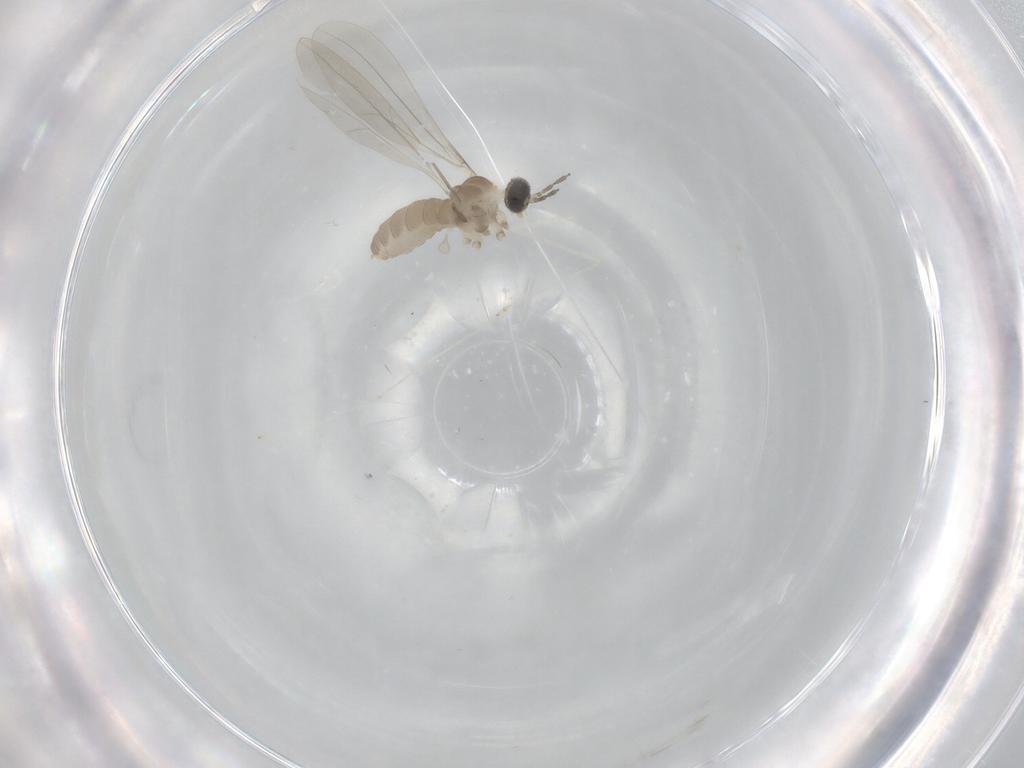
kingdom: Animalia
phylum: Arthropoda
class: Insecta
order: Diptera
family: Cecidomyiidae
